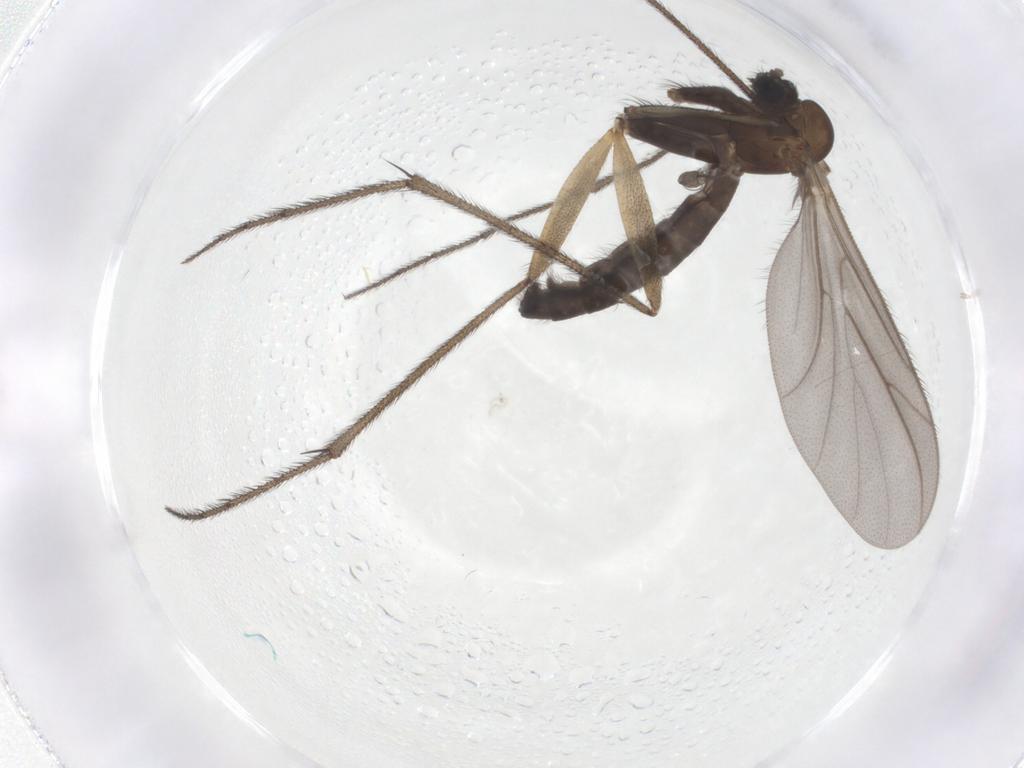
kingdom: Animalia
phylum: Arthropoda
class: Insecta
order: Diptera
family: Ditomyiidae
